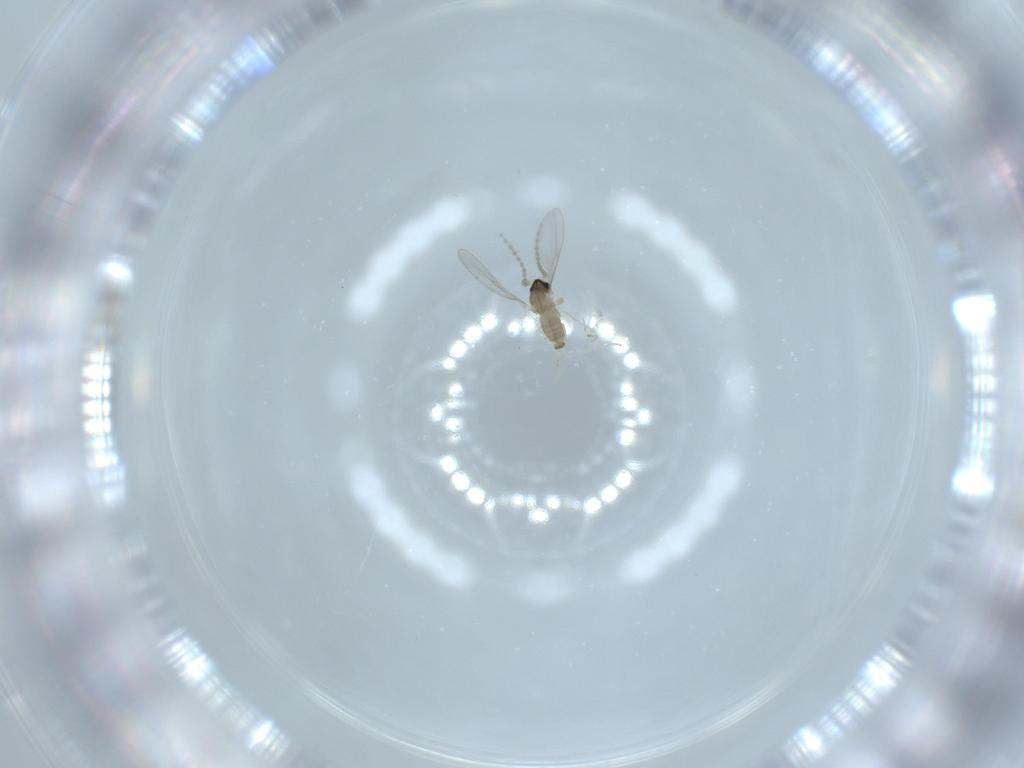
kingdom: Animalia
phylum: Arthropoda
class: Insecta
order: Diptera
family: Cecidomyiidae
